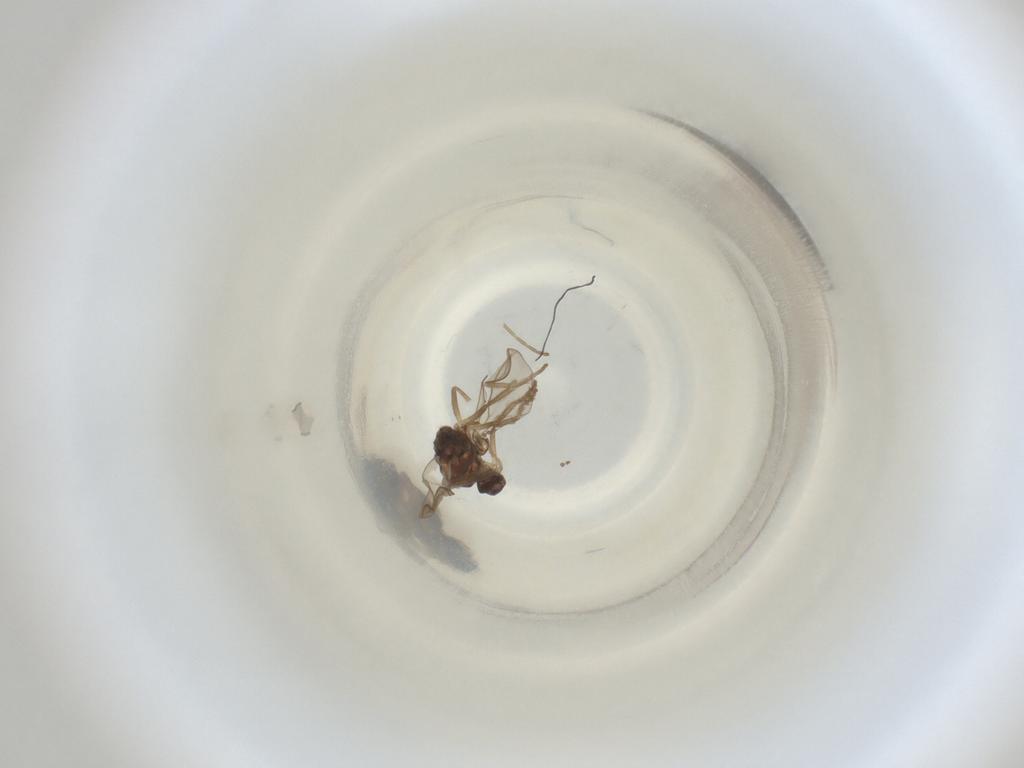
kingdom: Animalia
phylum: Arthropoda
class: Insecta
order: Diptera
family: Cecidomyiidae
